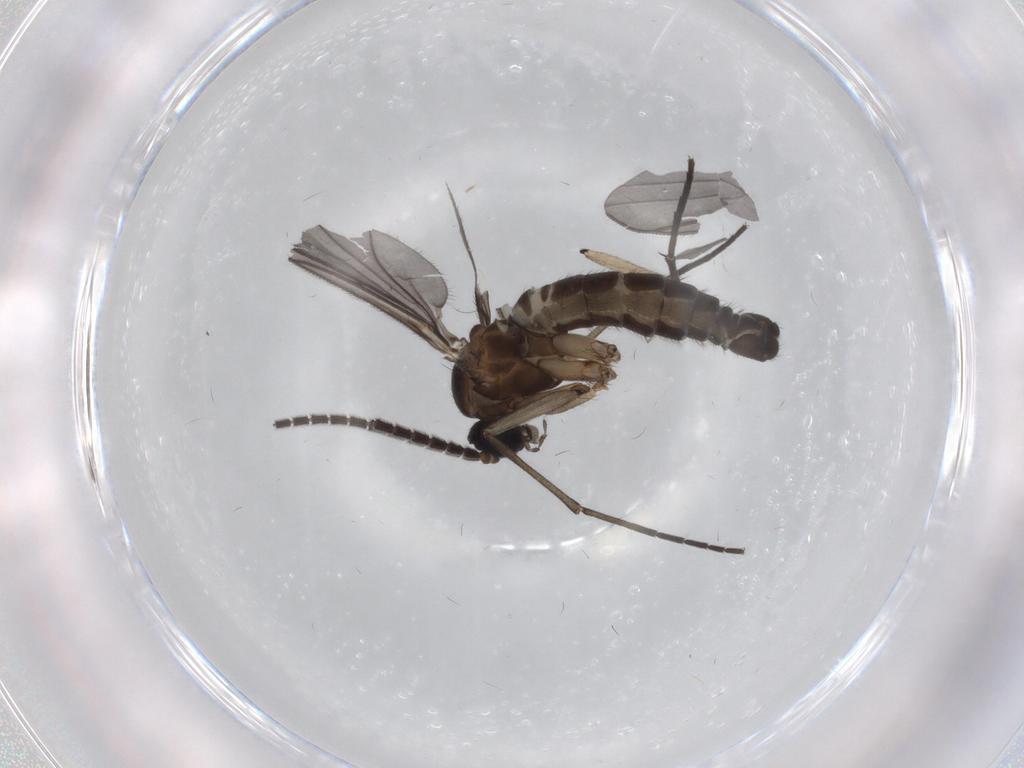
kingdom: Animalia
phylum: Arthropoda
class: Insecta
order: Diptera
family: Sciaridae
